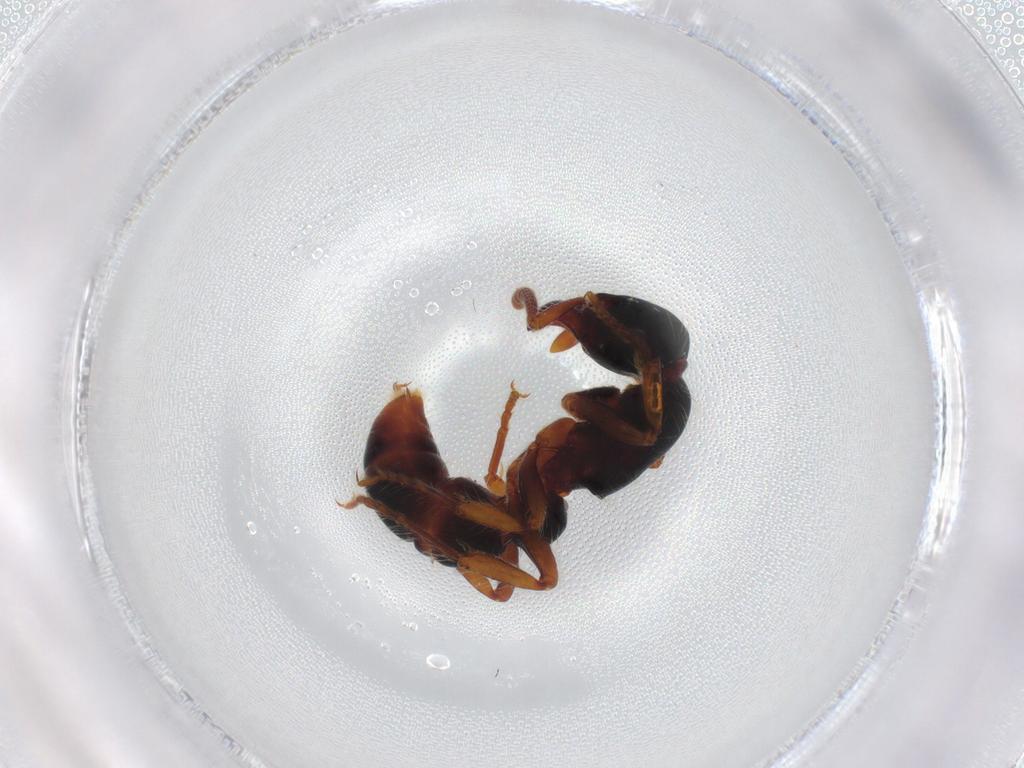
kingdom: Animalia
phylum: Arthropoda
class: Insecta
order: Hymenoptera
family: Formicidae
